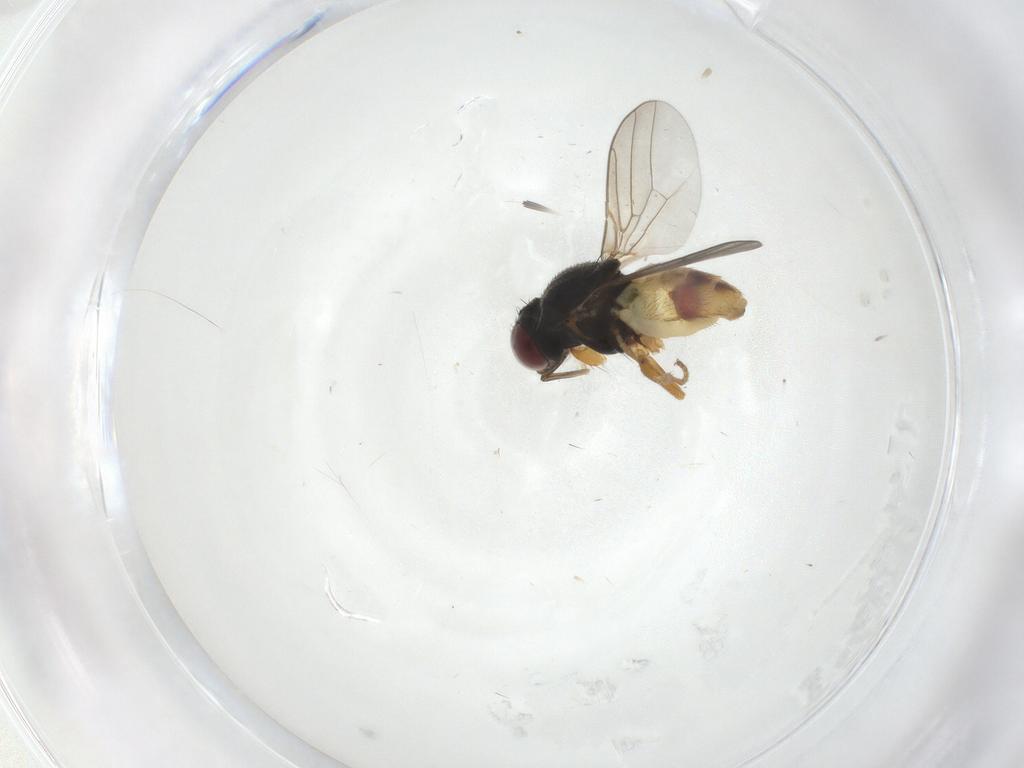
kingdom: Animalia
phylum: Arthropoda
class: Insecta
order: Diptera
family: Chloropidae
